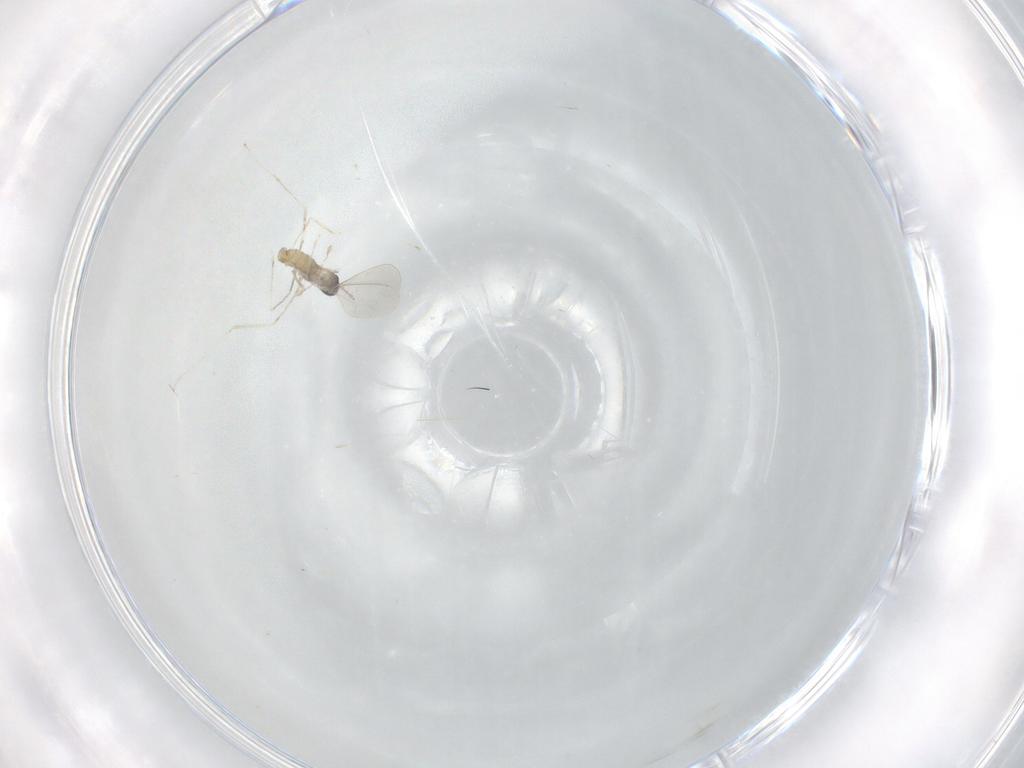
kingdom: Animalia
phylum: Arthropoda
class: Insecta
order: Diptera
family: Cecidomyiidae
